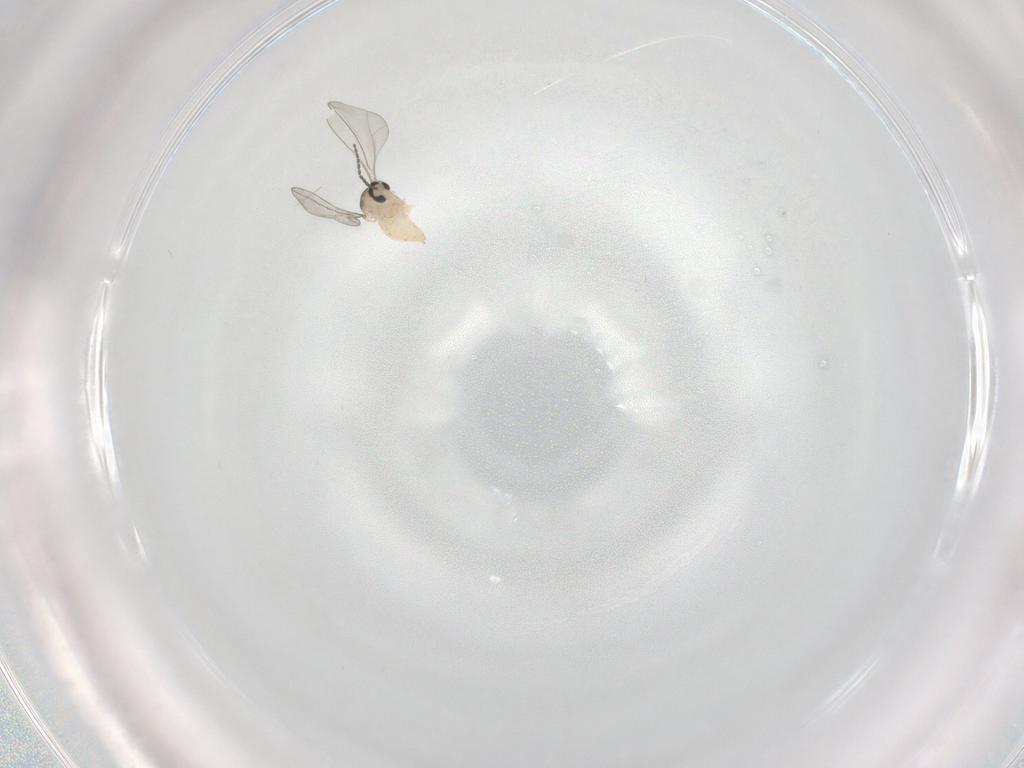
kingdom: Animalia
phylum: Arthropoda
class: Insecta
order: Diptera
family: Cecidomyiidae
